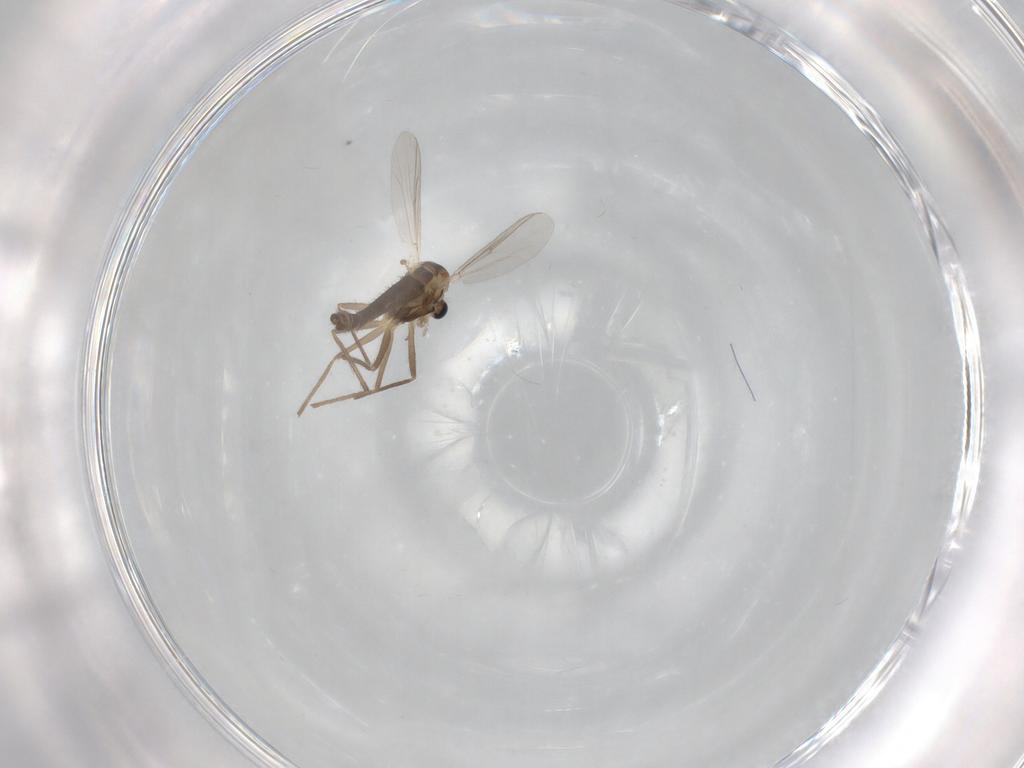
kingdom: Animalia
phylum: Arthropoda
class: Insecta
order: Diptera
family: Chironomidae
